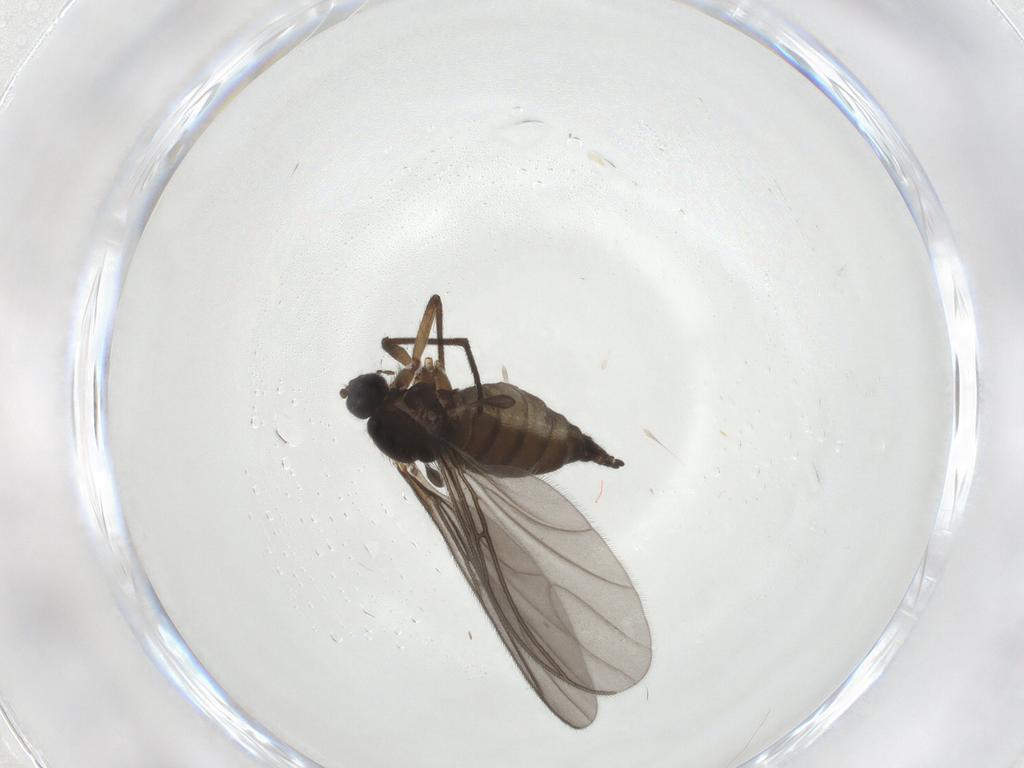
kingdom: Animalia
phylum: Arthropoda
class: Insecta
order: Diptera
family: Sciaridae
